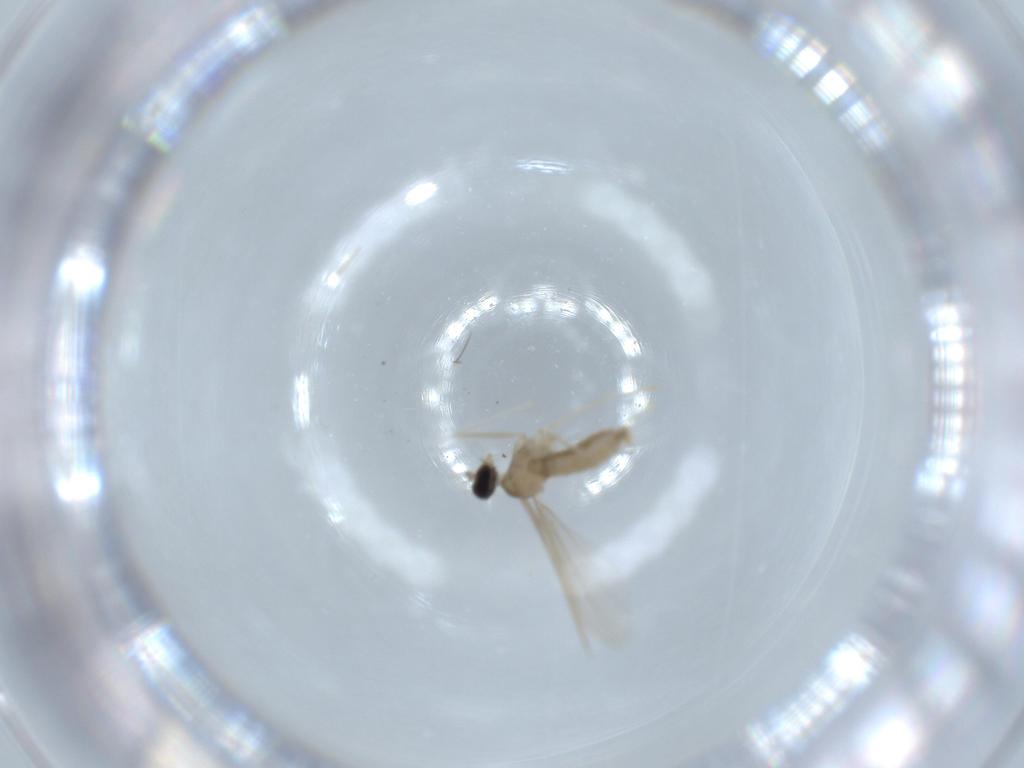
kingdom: Animalia
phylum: Arthropoda
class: Insecta
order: Diptera
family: Cecidomyiidae
